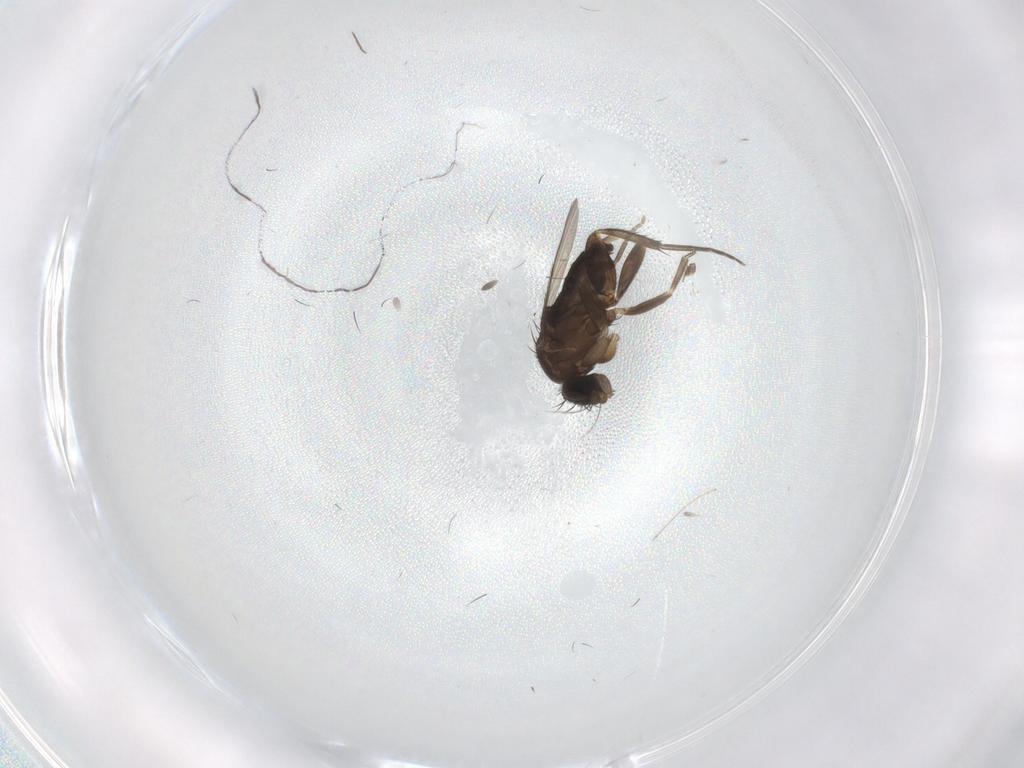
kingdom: Animalia
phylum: Arthropoda
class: Insecta
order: Diptera
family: Phoridae
